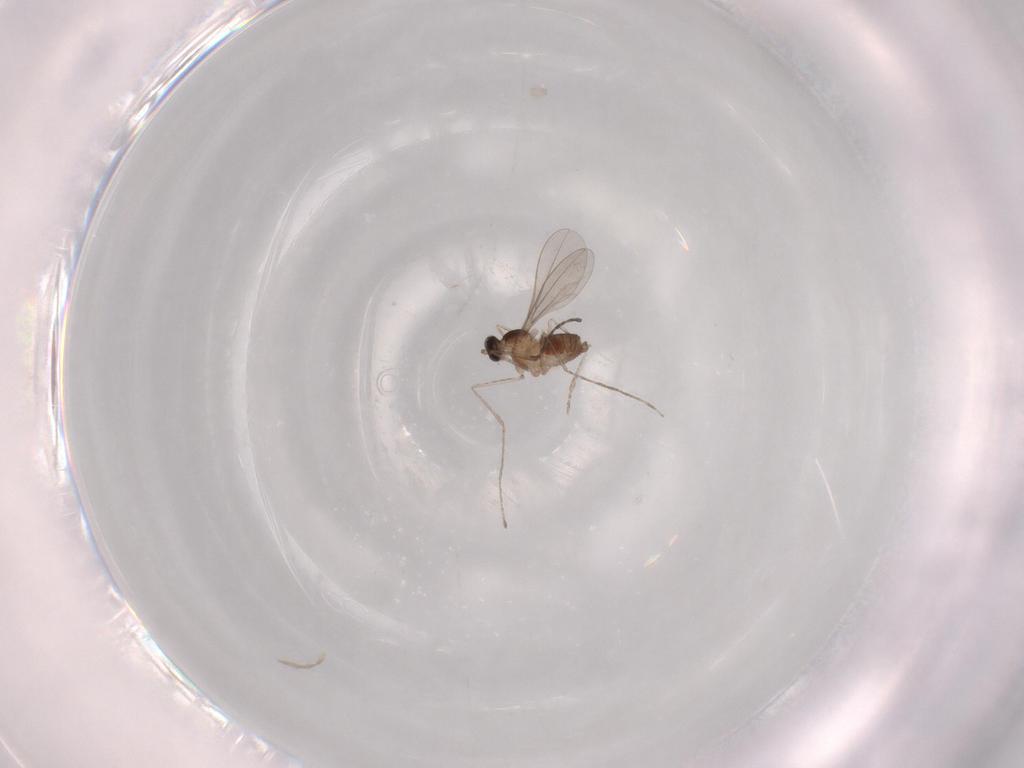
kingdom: Animalia
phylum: Arthropoda
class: Insecta
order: Diptera
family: Cecidomyiidae
